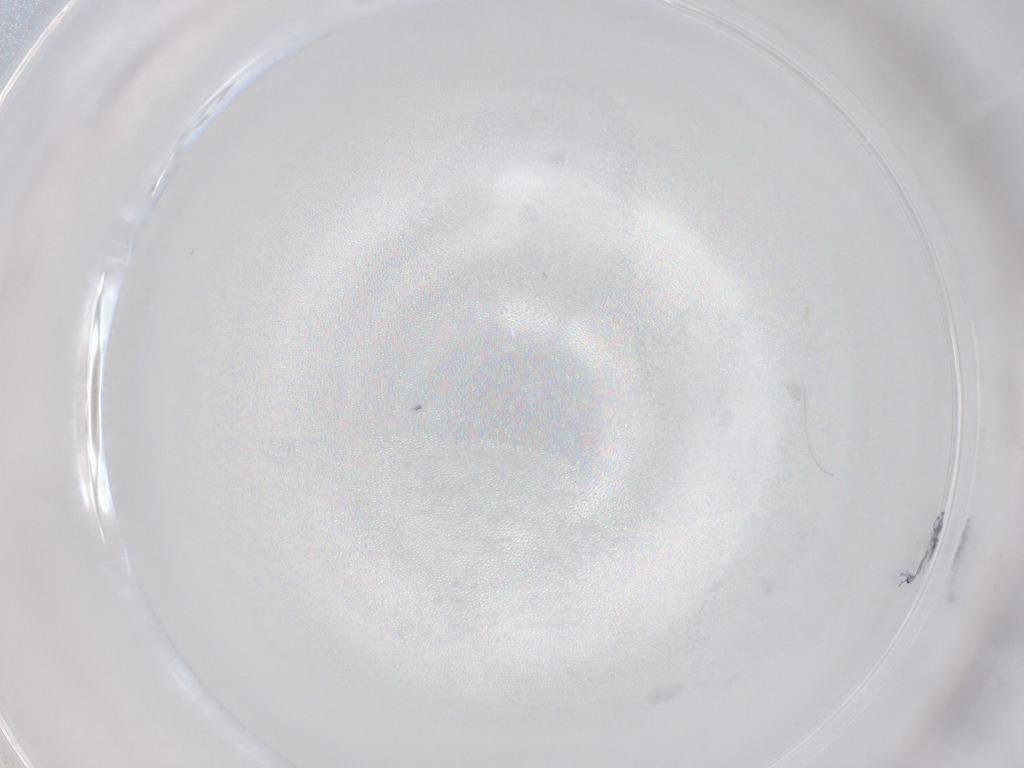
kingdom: Animalia
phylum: Arthropoda
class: Collembola
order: Entomobryomorpha
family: Entomobryidae
